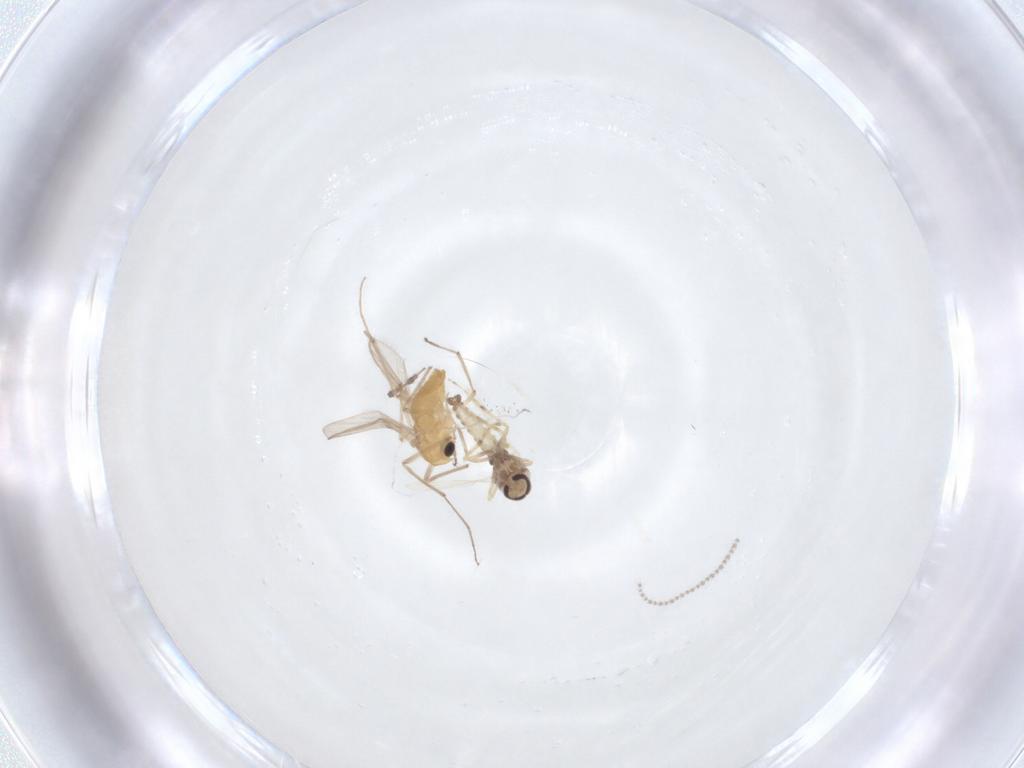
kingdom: Animalia
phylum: Arthropoda
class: Insecta
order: Diptera
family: Cecidomyiidae
